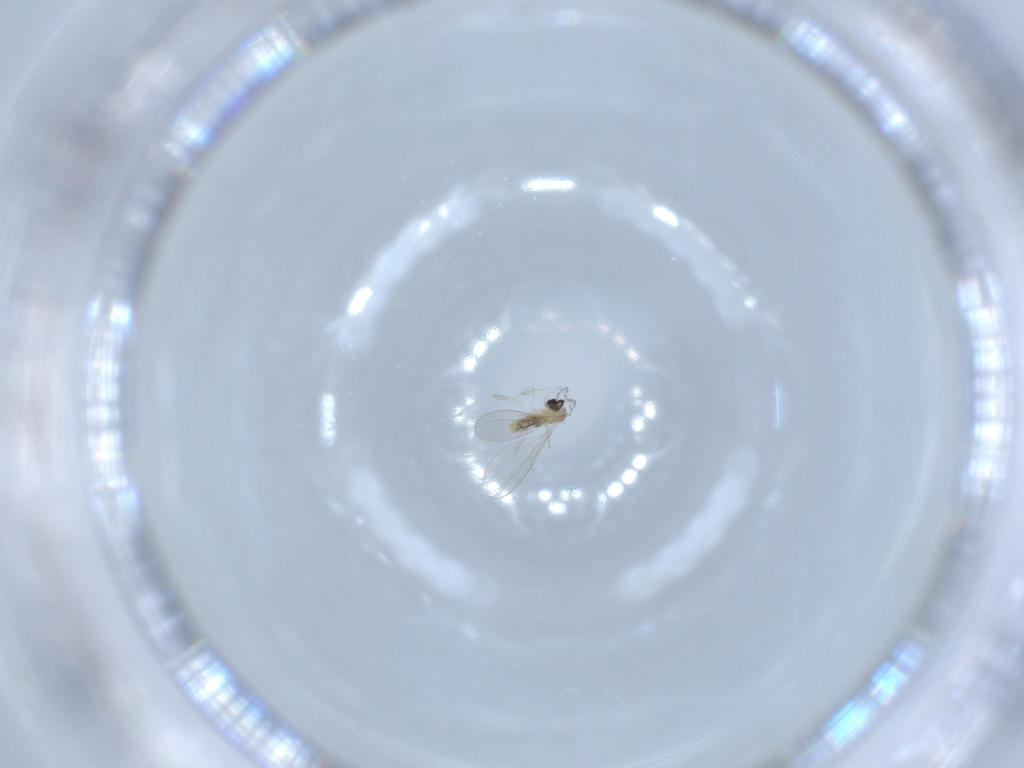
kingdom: Animalia
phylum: Arthropoda
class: Insecta
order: Diptera
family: Cecidomyiidae
